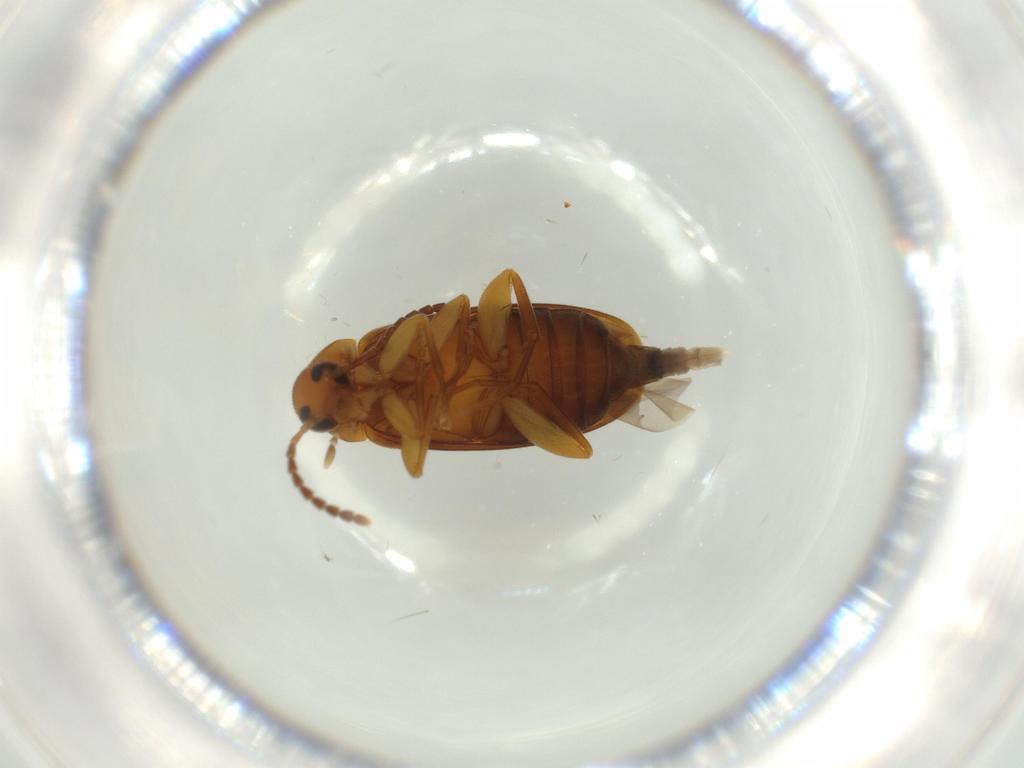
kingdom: Animalia
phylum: Arthropoda
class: Insecta
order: Coleoptera
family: Scraptiidae
